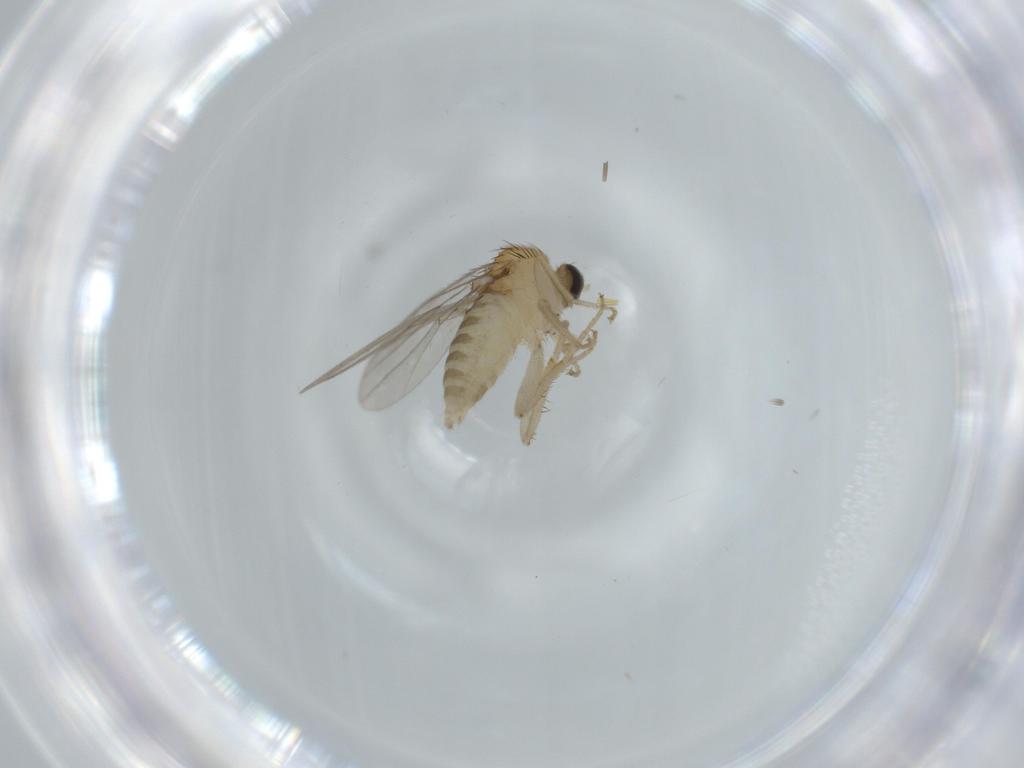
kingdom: Animalia
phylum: Arthropoda
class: Insecta
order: Diptera
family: Hybotidae
